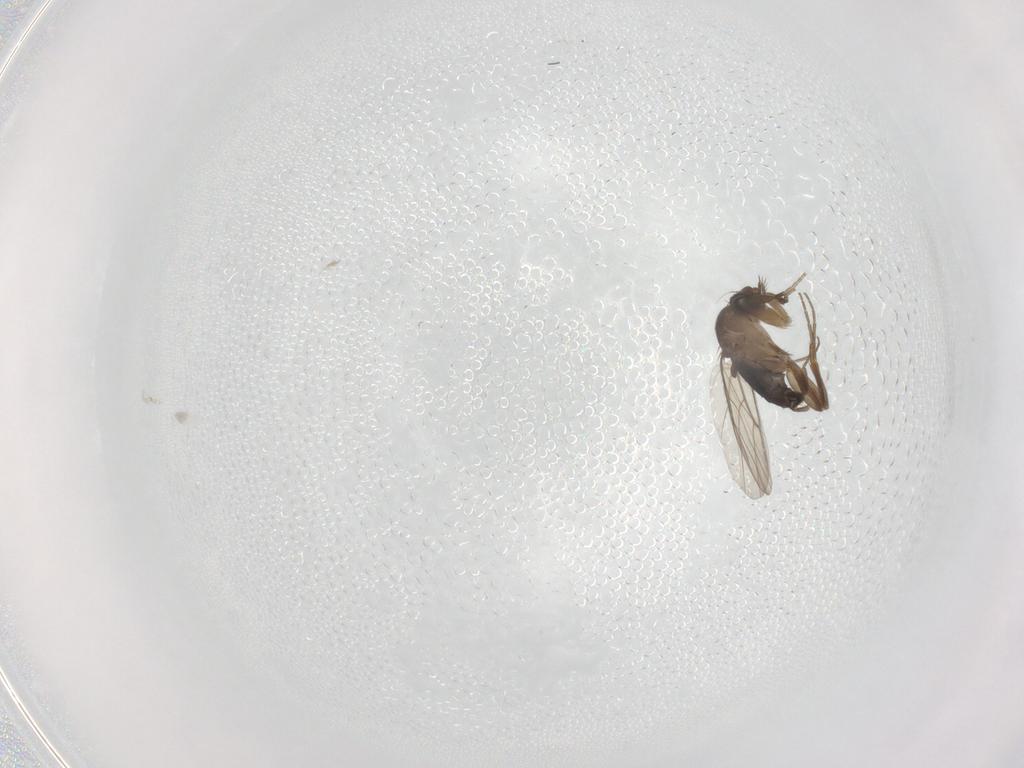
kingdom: Animalia
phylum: Arthropoda
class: Insecta
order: Diptera
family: Phoridae
